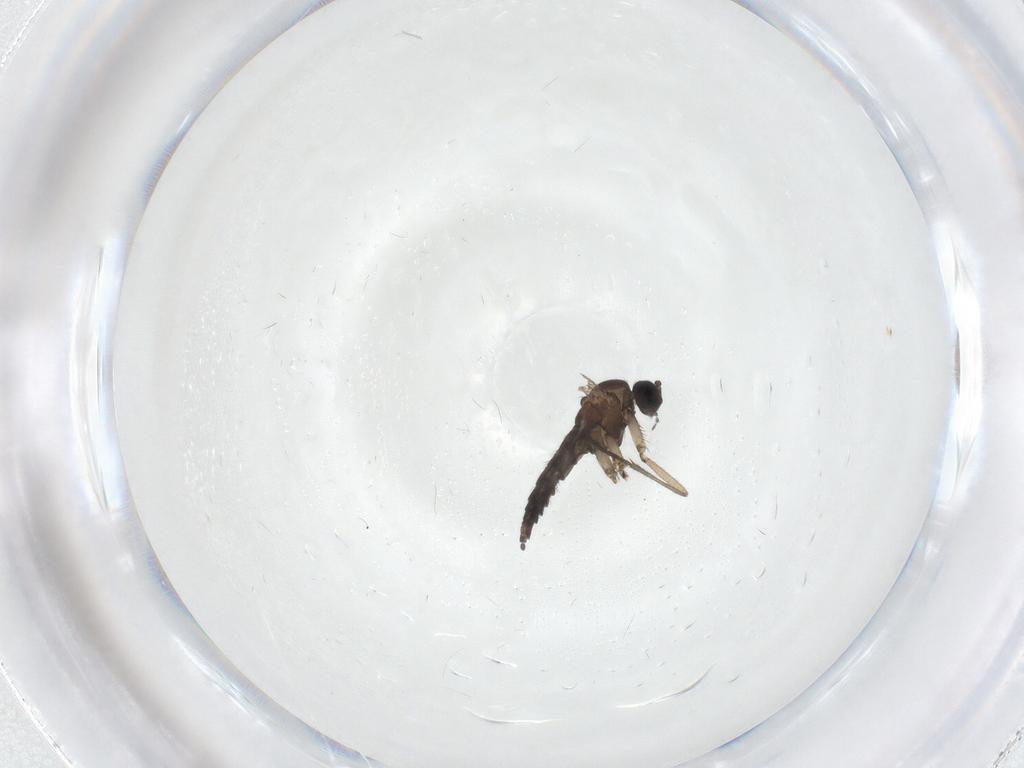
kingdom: Animalia
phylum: Arthropoda
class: Insecta
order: Diptera
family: Sciaridae
